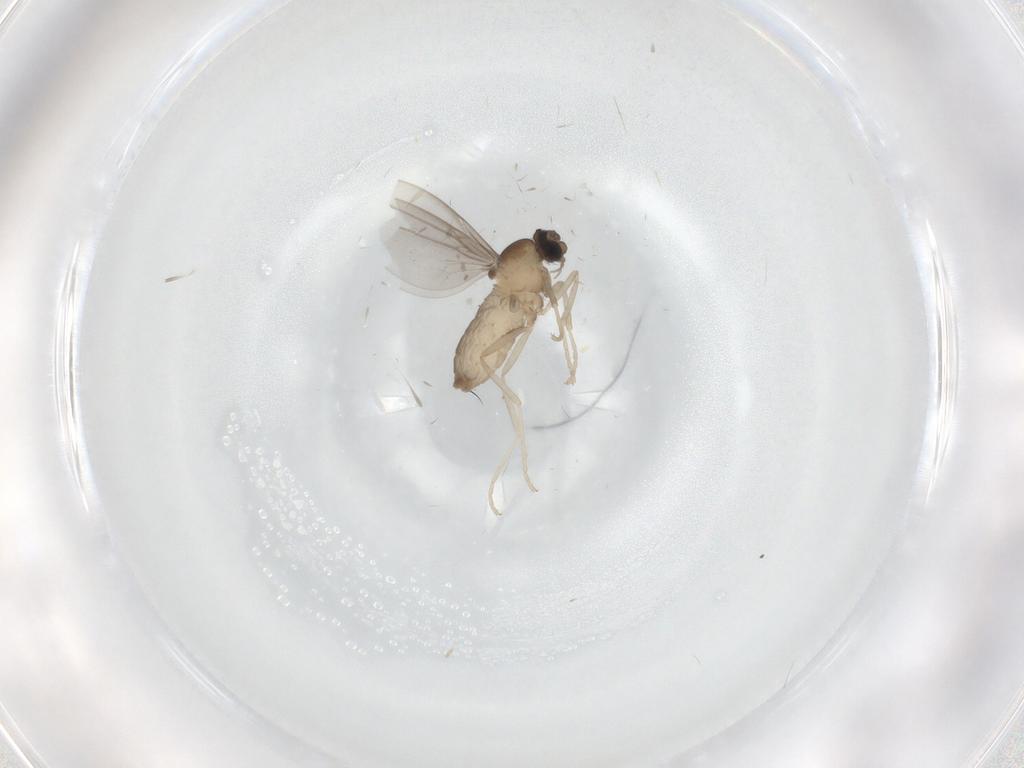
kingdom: Animalia
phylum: Arthropoda
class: Insecta
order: Diptera
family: Cecidomyiidae
